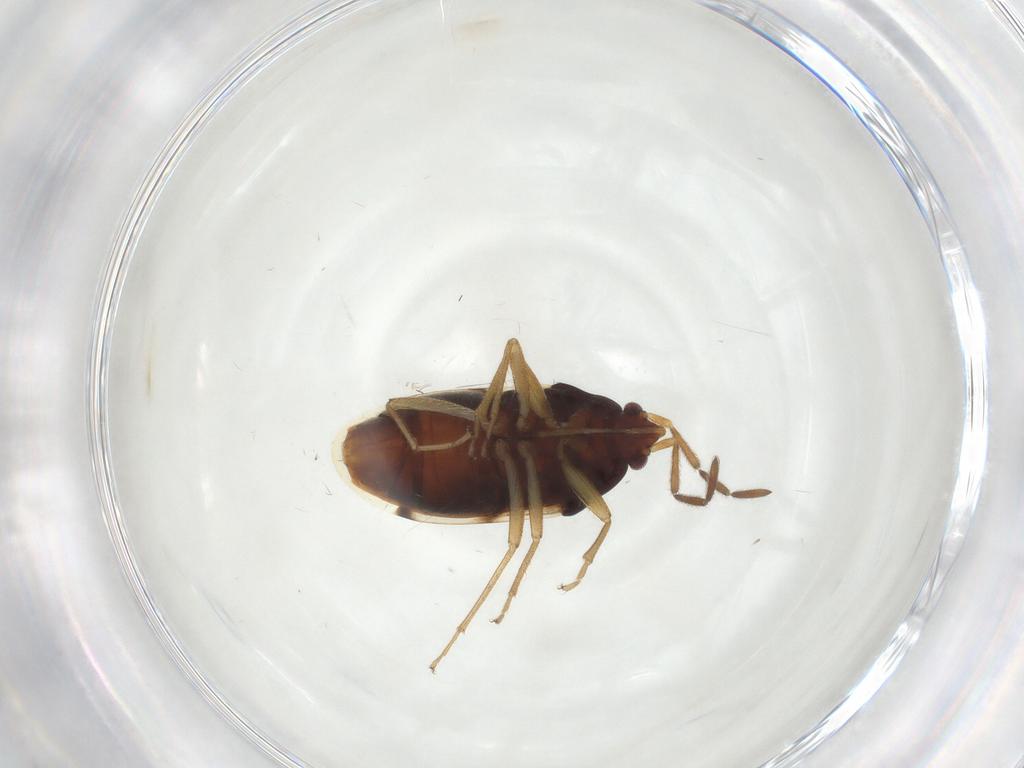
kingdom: Animalia
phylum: Arthropoda
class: Insecta
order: Hemiptera
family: Rhyparochromidae
